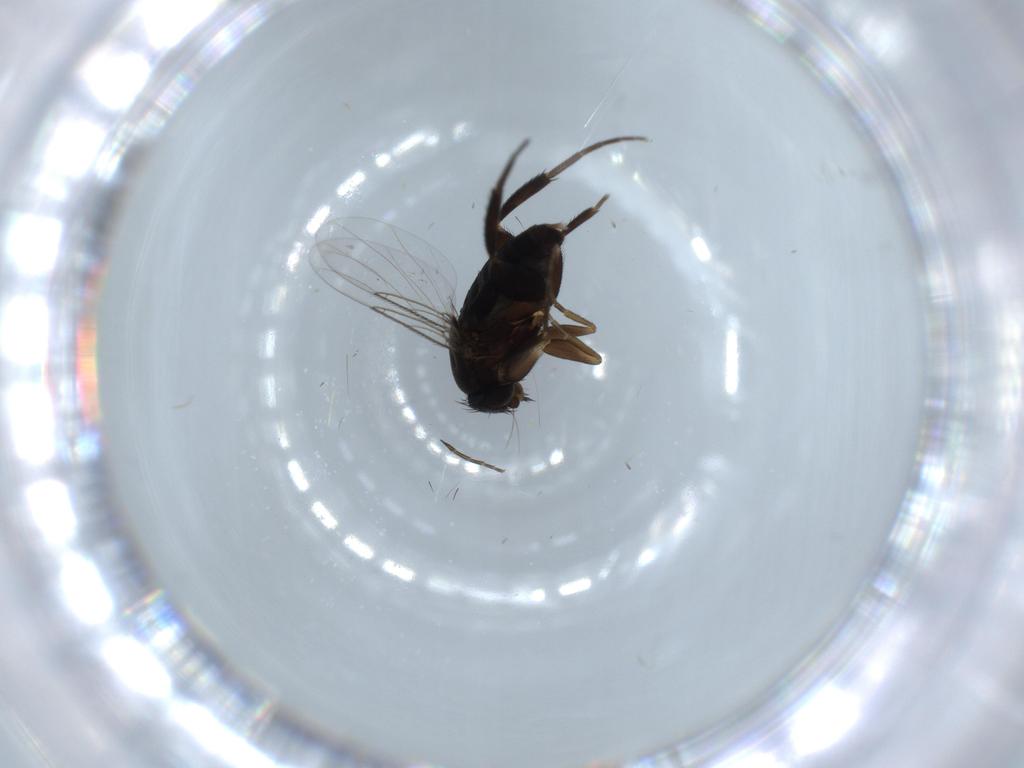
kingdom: Animalia
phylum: Arthropoda
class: Insecta
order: Diptera
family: Phoridae
